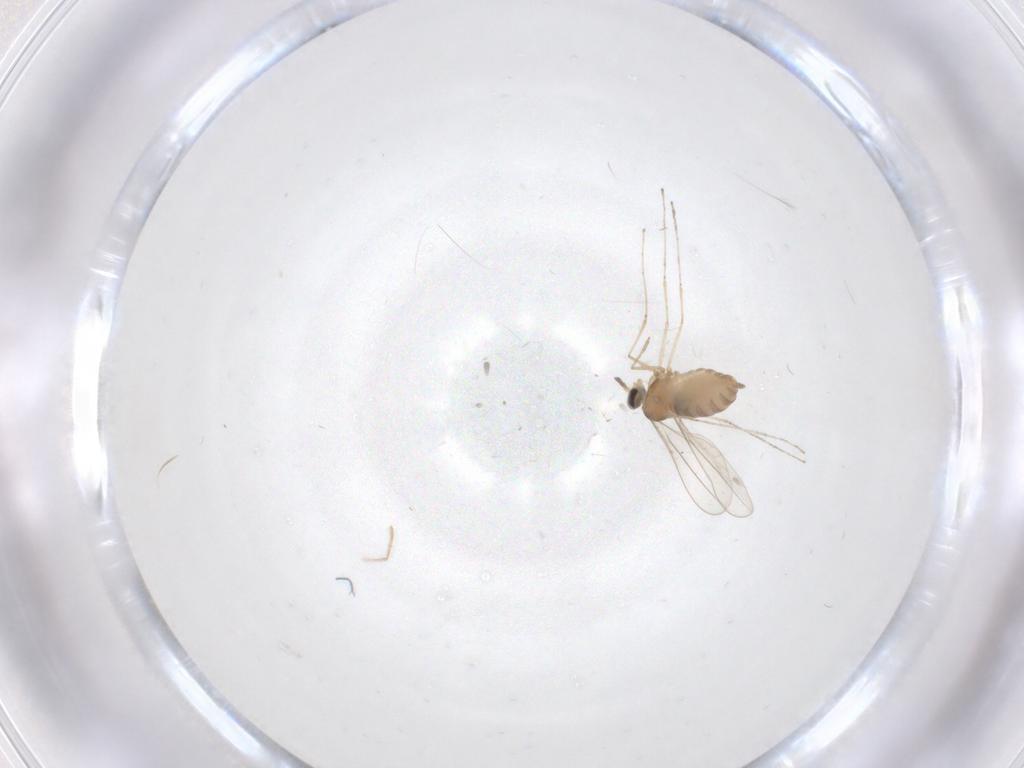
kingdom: Animalia
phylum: Arthropoda
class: Insecta
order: Diptera
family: Cecidomyiidae
